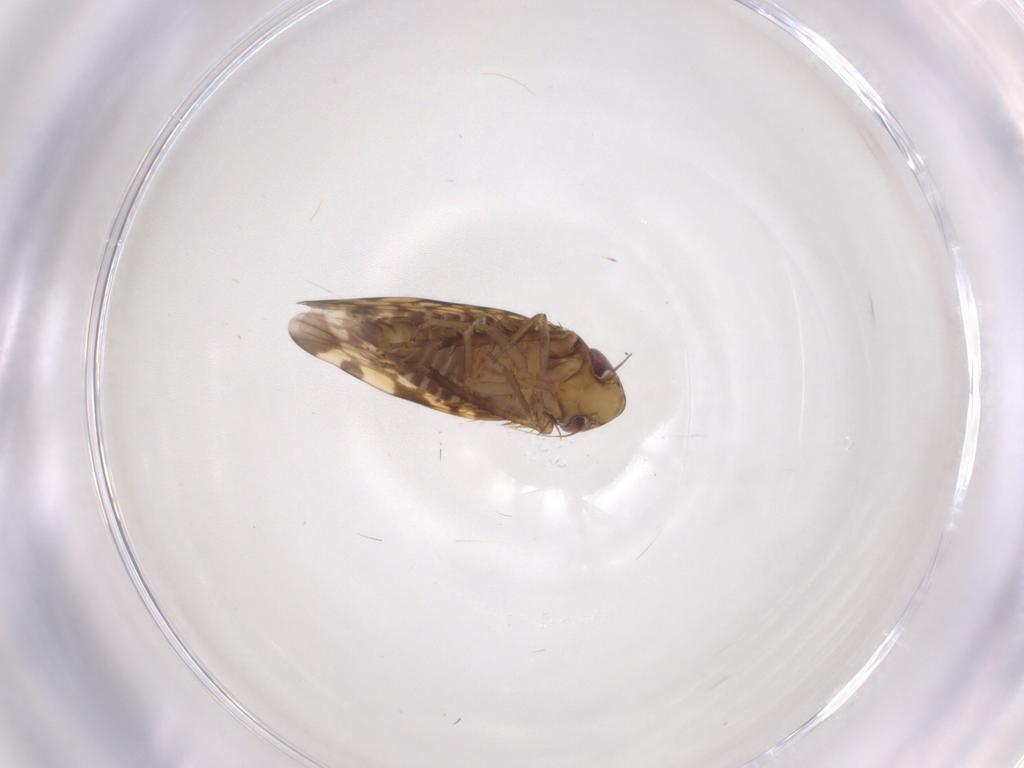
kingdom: Animalia
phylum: Arthropoda
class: Insecta
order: Hemiptera
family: Cicadellidae
